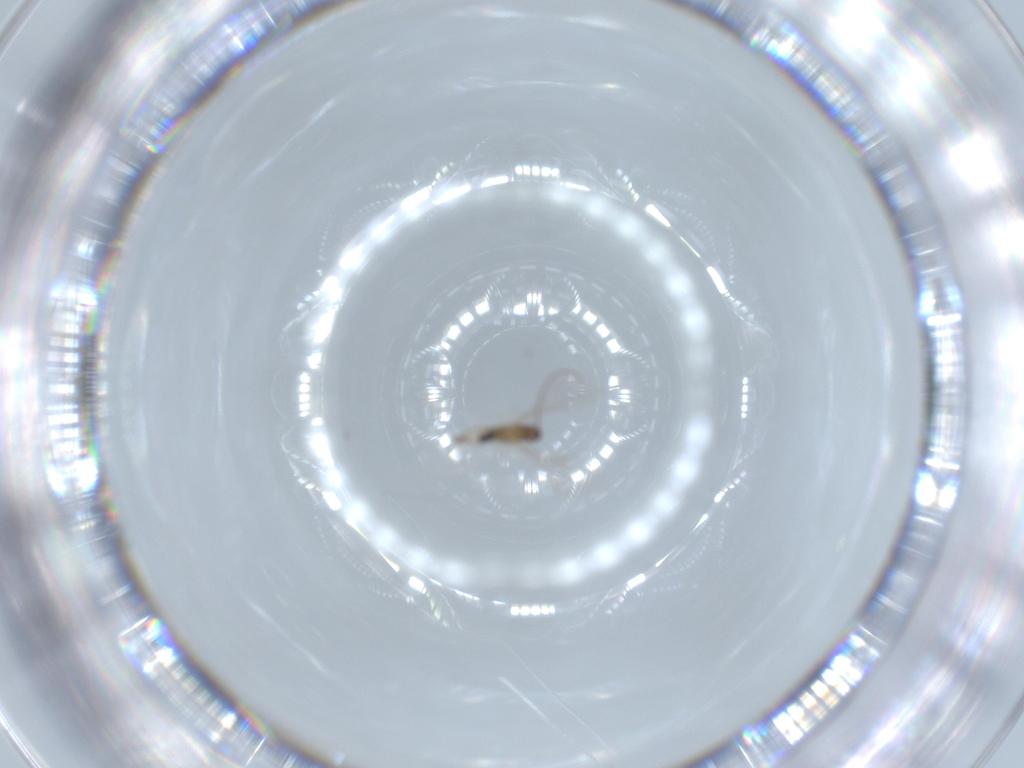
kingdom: Animalia
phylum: Arthropoda
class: Insecta
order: Diptera
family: Cecidomyiidae
